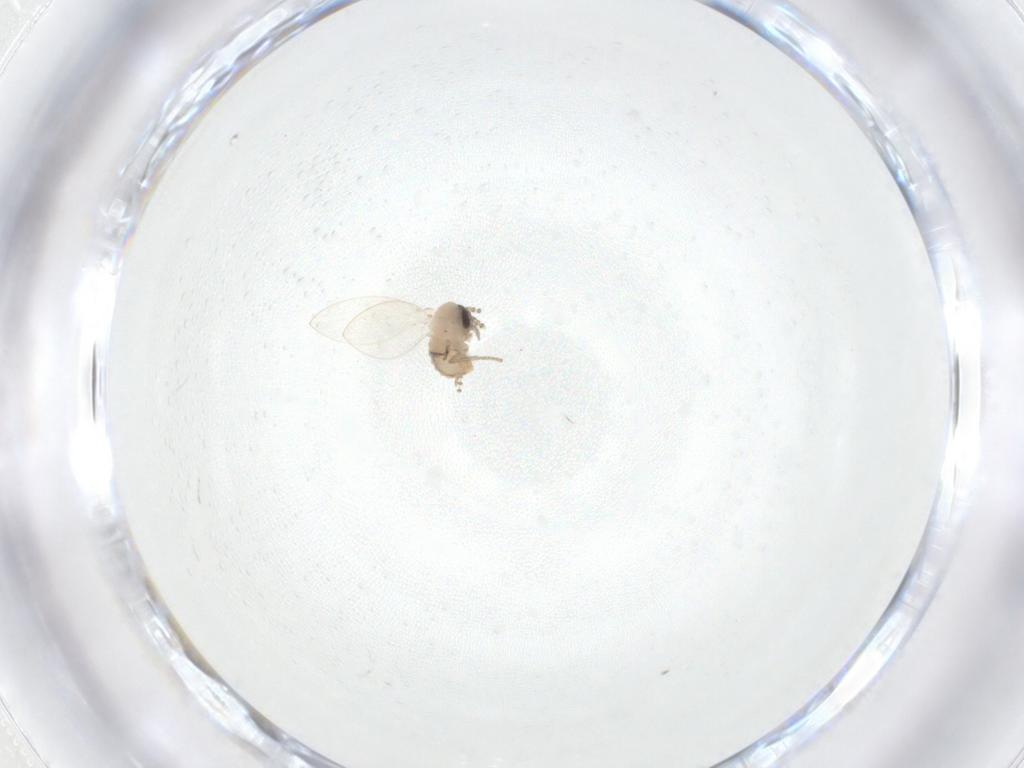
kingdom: Animalia
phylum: Arthropoda
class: Insecta
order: Diptera
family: Psychodidae
